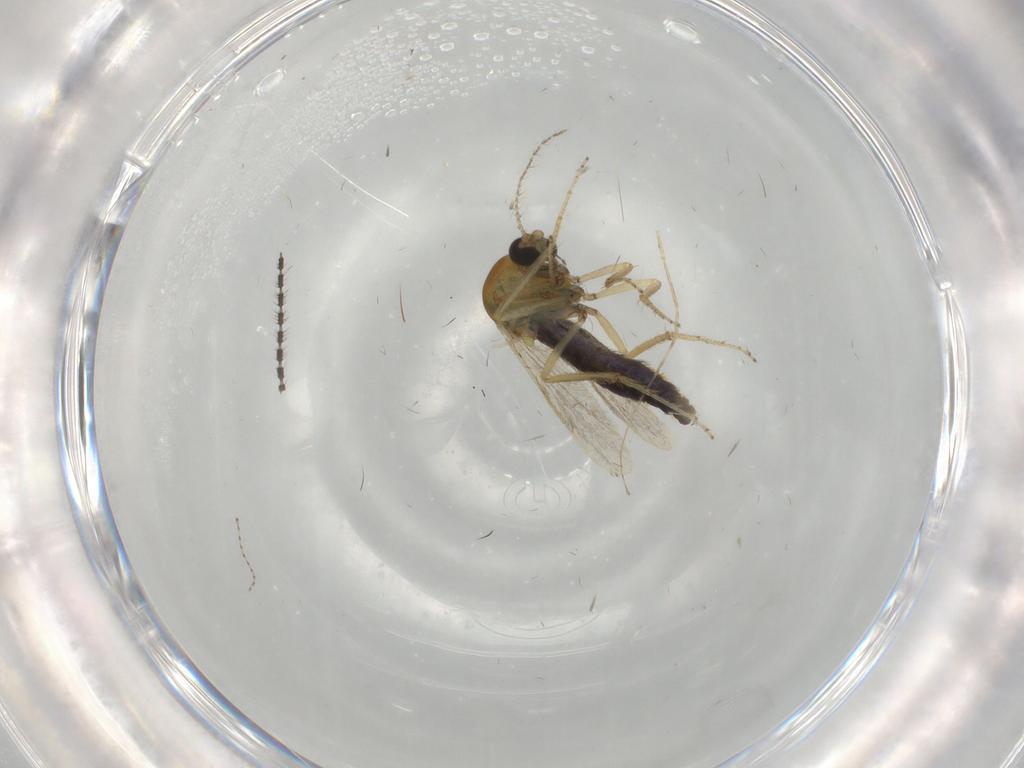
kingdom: Animalia
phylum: Arthropoda
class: Insecta
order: Diptera
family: Ceratopogonidae
